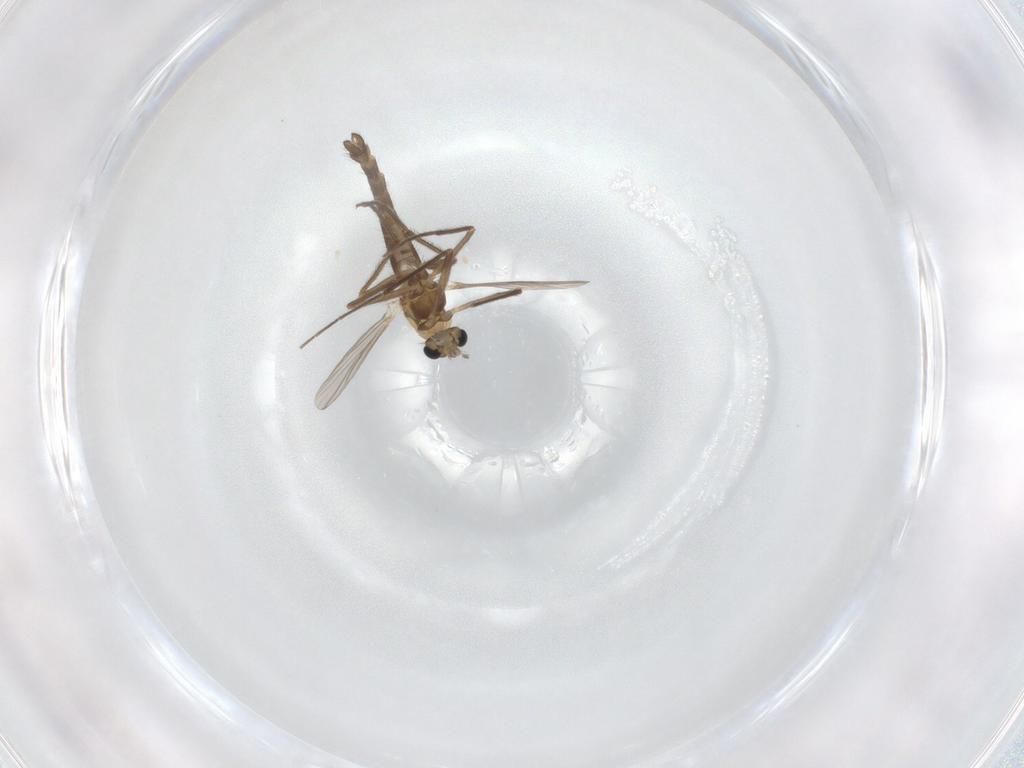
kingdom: Animalia
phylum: Arthropoda
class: Insecta
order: Diptera
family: Chironomidae
